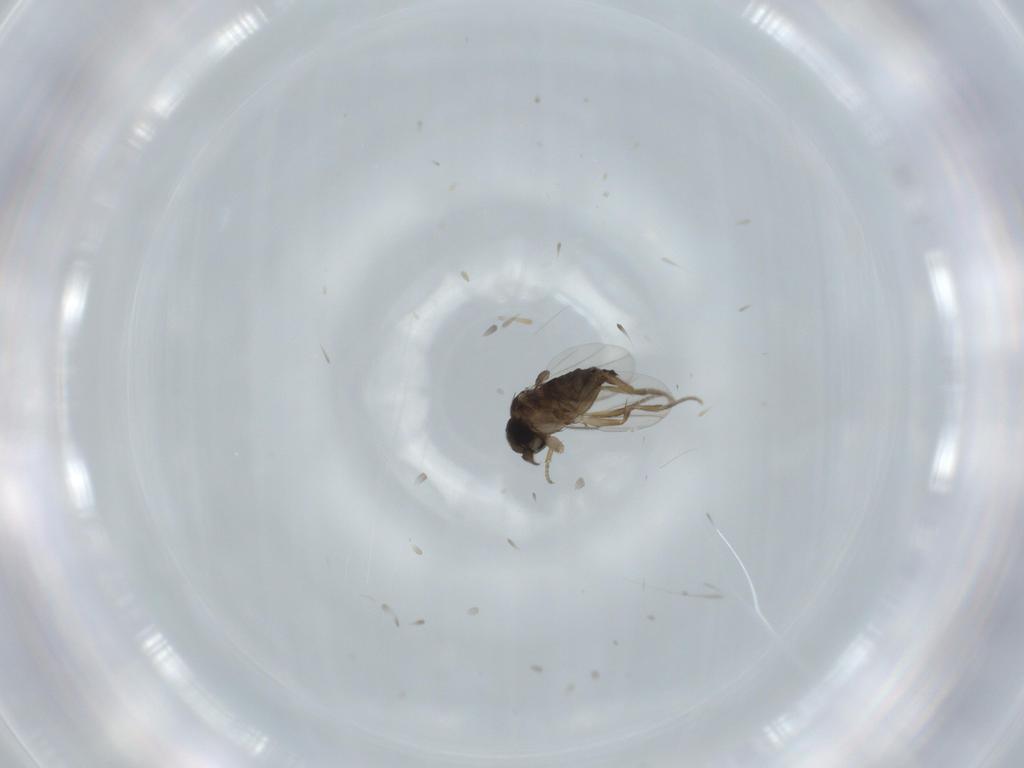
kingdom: Animalia
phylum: Arthropoda
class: Insecta
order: Diptera
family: Phoridae
